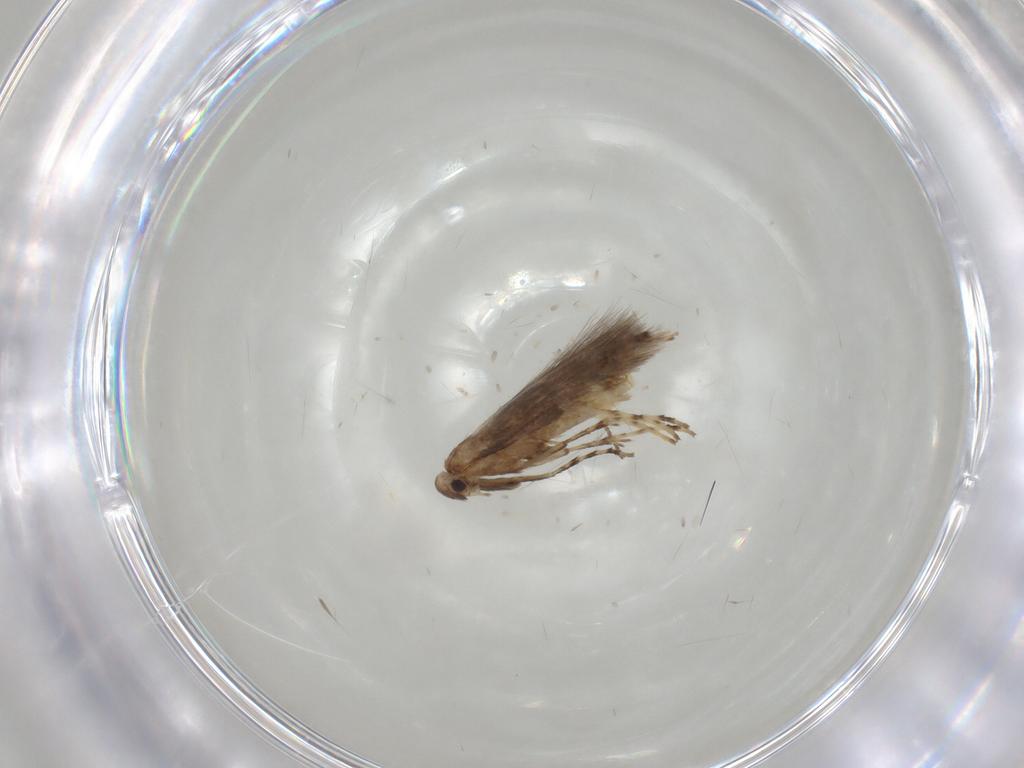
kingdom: Animalia
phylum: Arthropoda
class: Insecta
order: Lepidoptera
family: Gracillariidae
